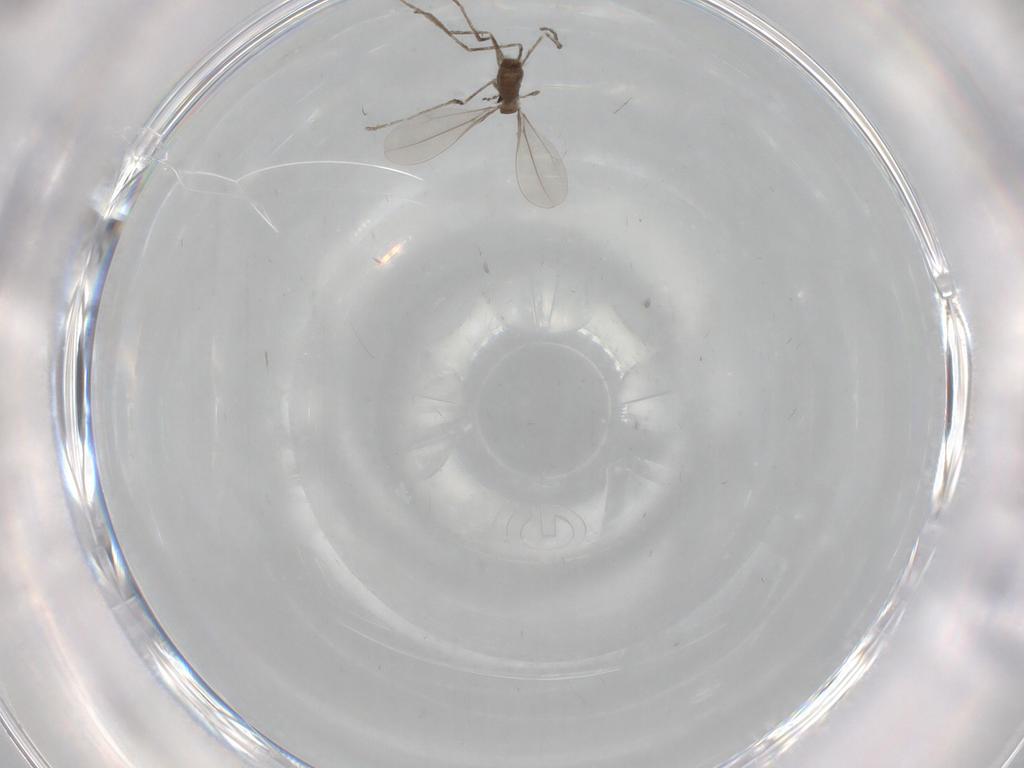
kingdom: Animalia
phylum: Arthropoda
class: Insecta
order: Diptera
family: Cecidomyiidae
